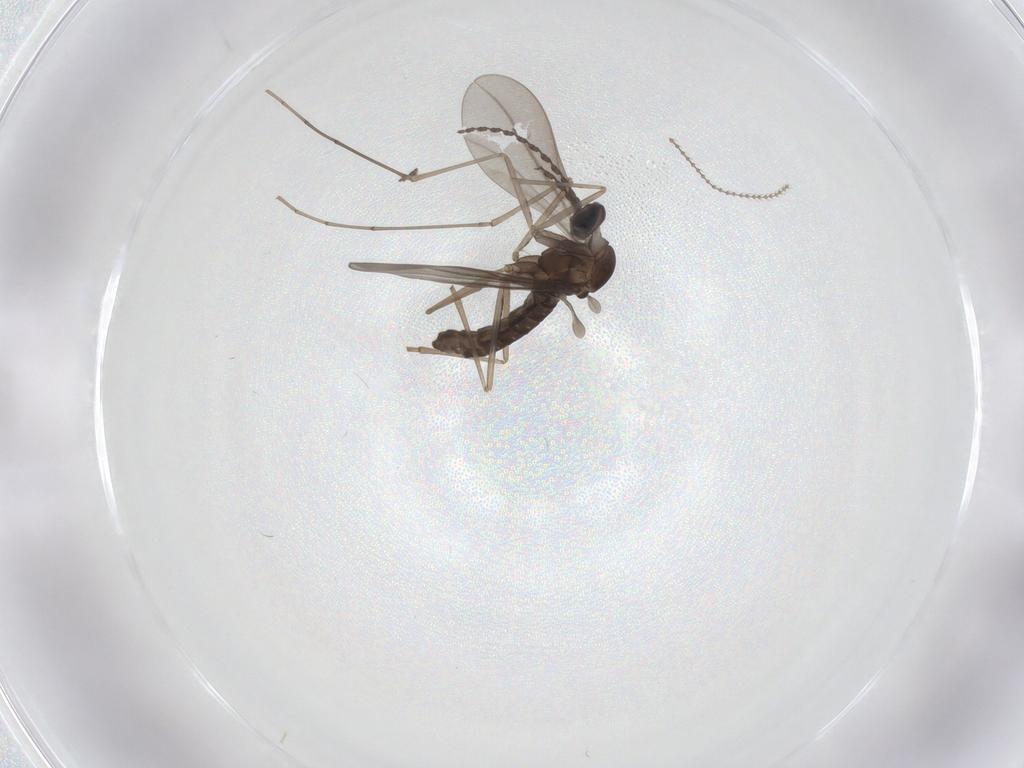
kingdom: Animalia
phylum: Arthropoda
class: Insecta
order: Diptera
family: Cecidomyiidae
